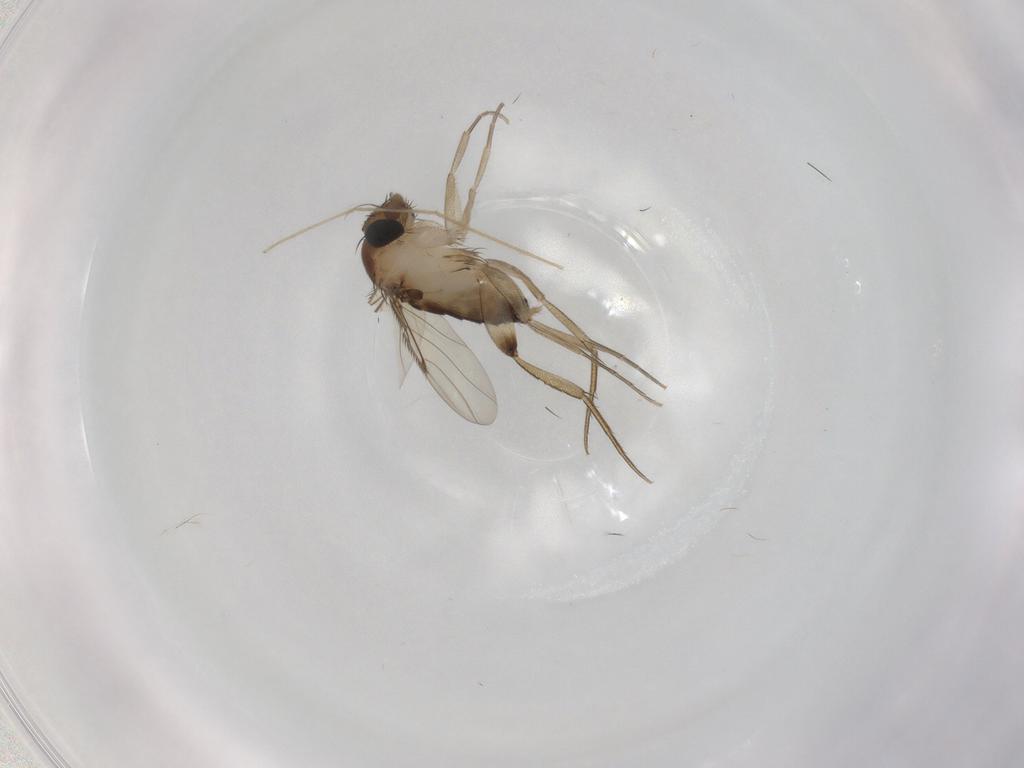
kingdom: Animalia
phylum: Arthropoda
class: Insecta
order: Diptera
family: Phoridae
